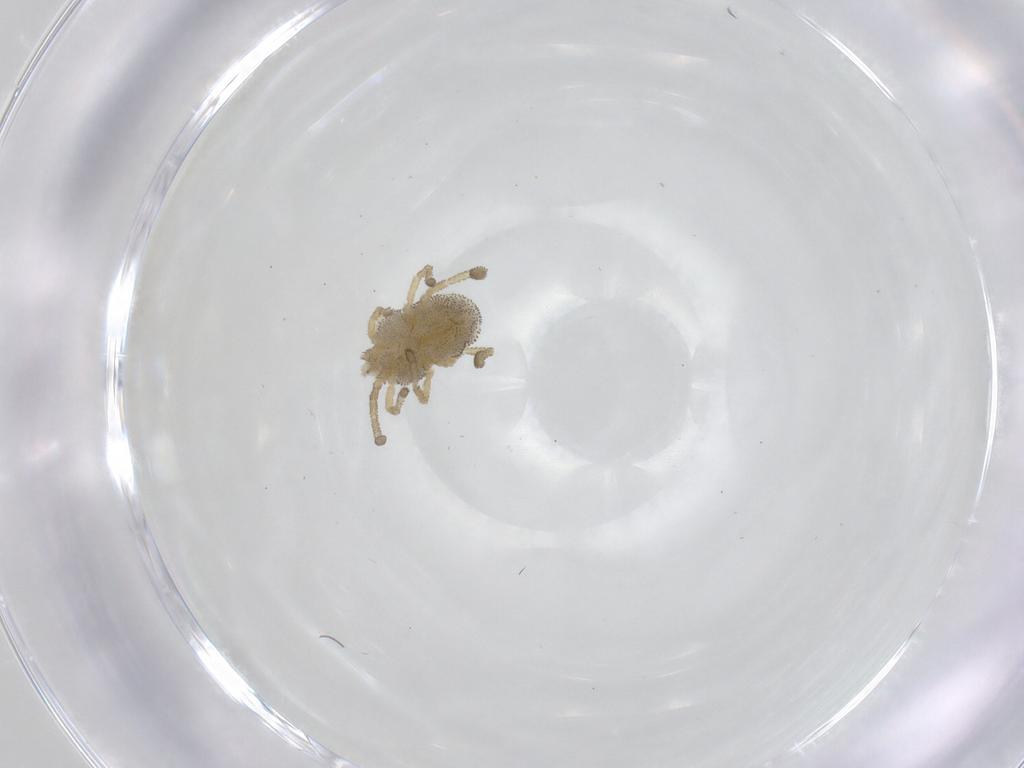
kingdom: Animalia
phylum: Arthropoda
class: Arachnida
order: Trombidiformes
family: Smarididae
